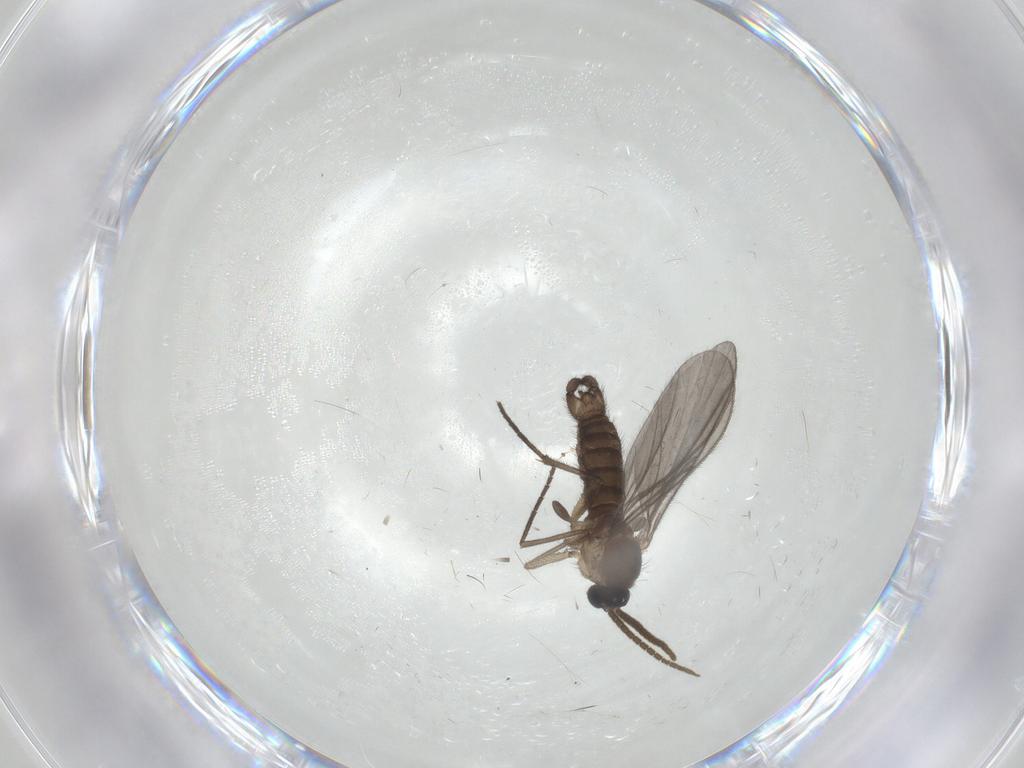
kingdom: Animalia
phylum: Arthropoda
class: Insecta
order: Diptera
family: Cecidomyiidae
